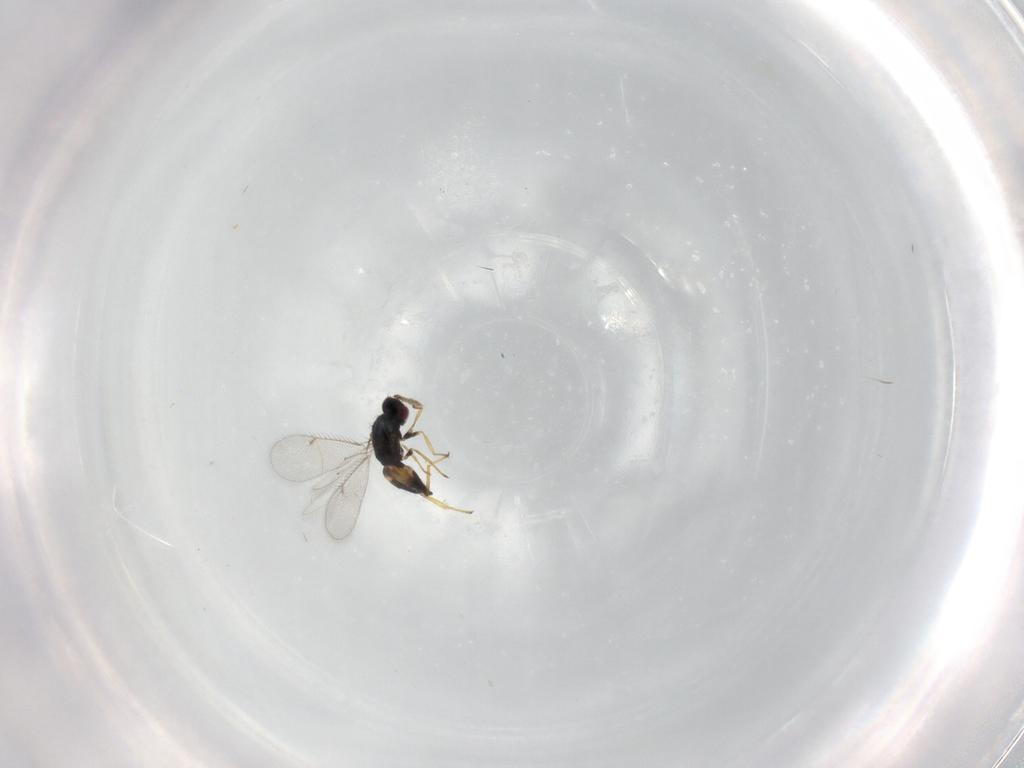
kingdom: Animalia
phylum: Arthropoda
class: Insecta
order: Hymenoptera
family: Eulophidae
